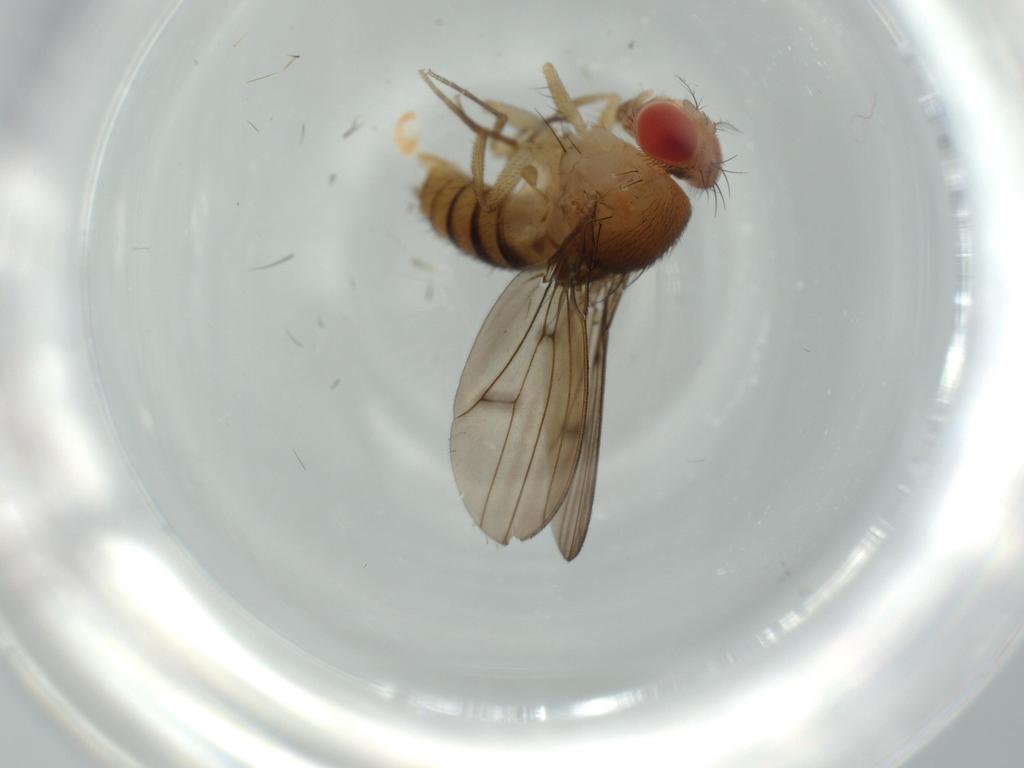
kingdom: Animalia
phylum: Arthropoda
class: Insecta
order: Diptera
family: Drosophilidae
